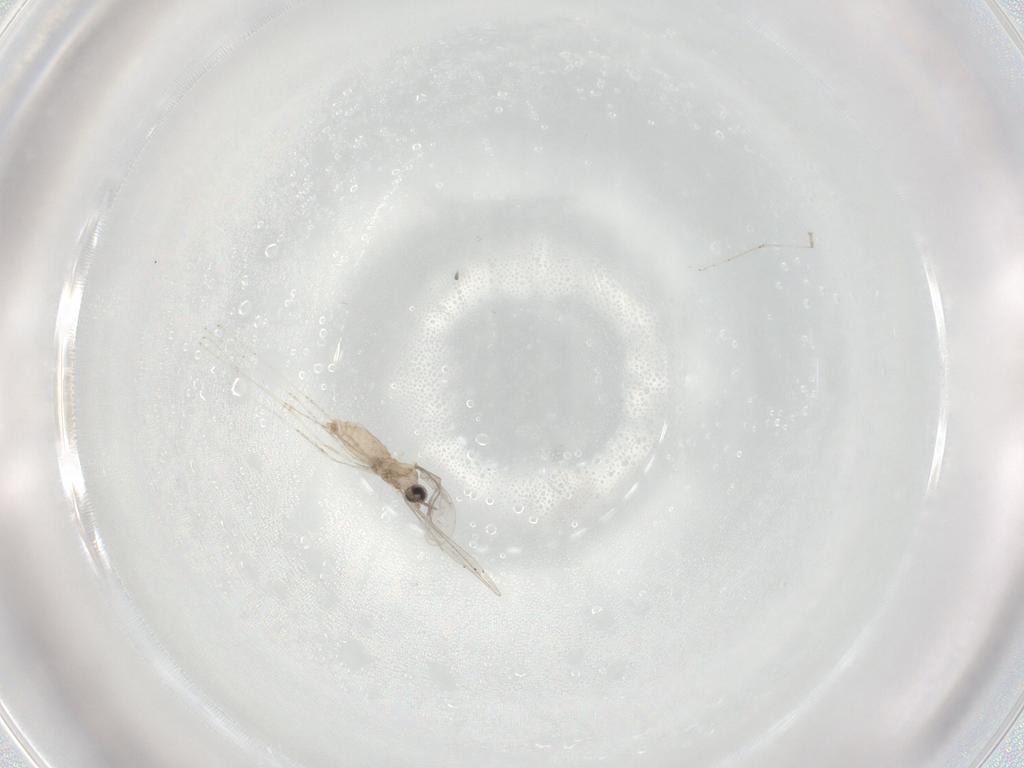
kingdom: Animalia
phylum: Arthropoda
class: Insecta
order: Diptera
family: Cecidomyiidae
